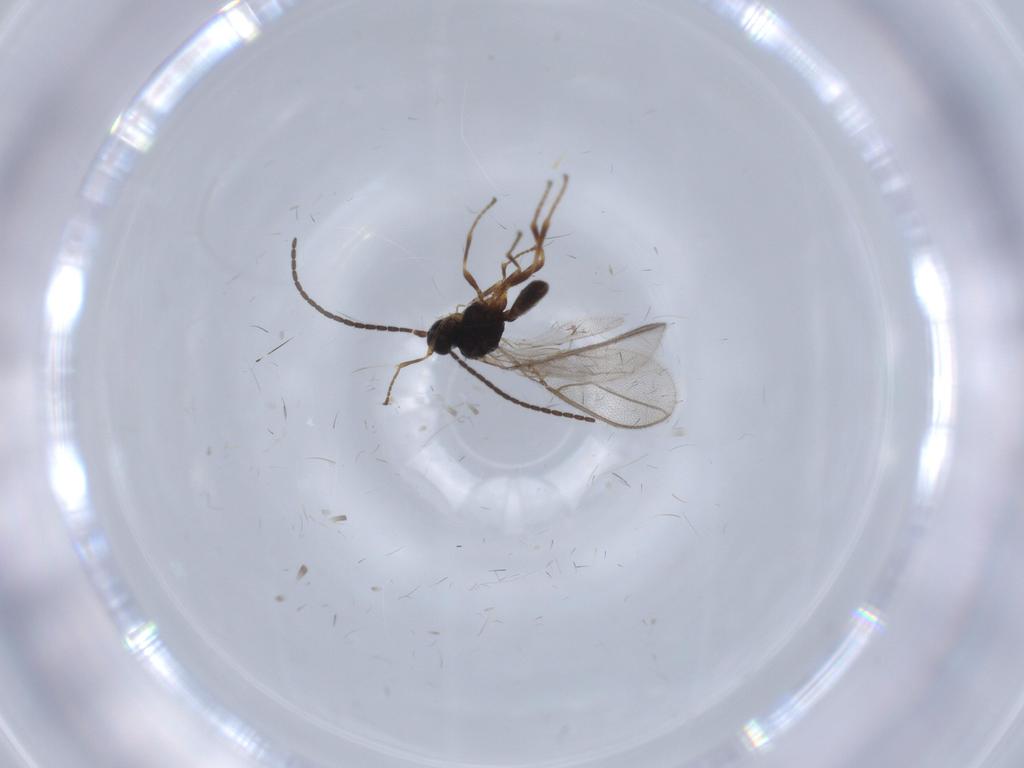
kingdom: Animalia
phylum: Arthropoda
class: Insecta
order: Hymenoptera
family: Braconidae
